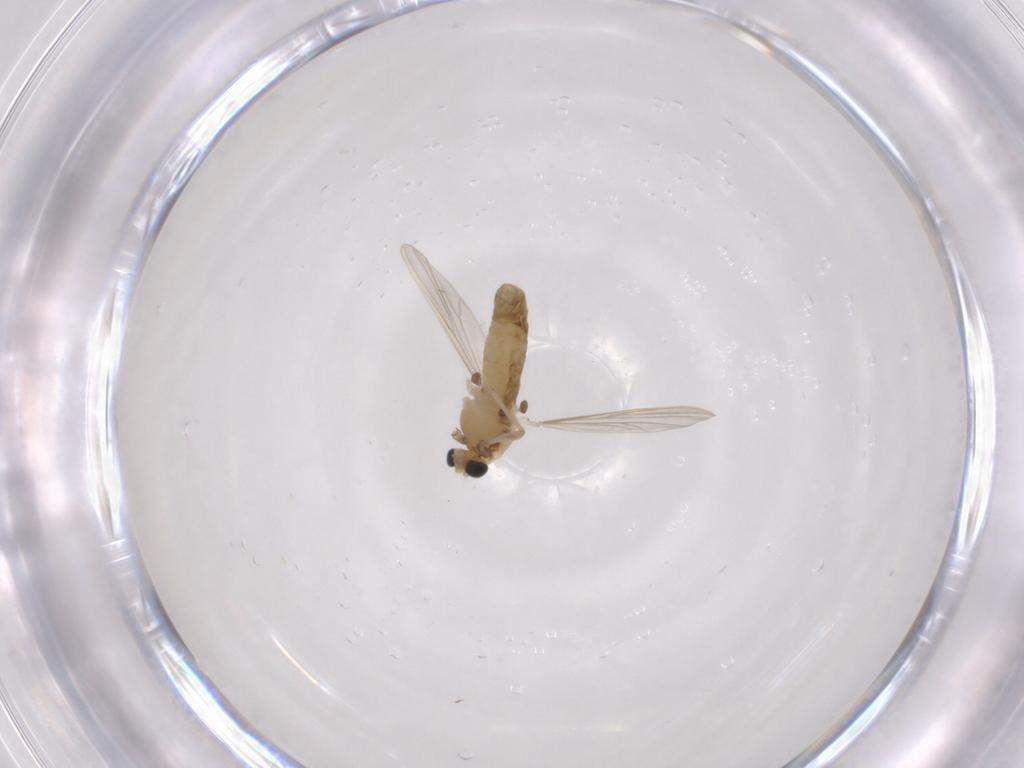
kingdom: Animalia
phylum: Arthropoda
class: Insecta
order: Diptera
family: Chironomidae
